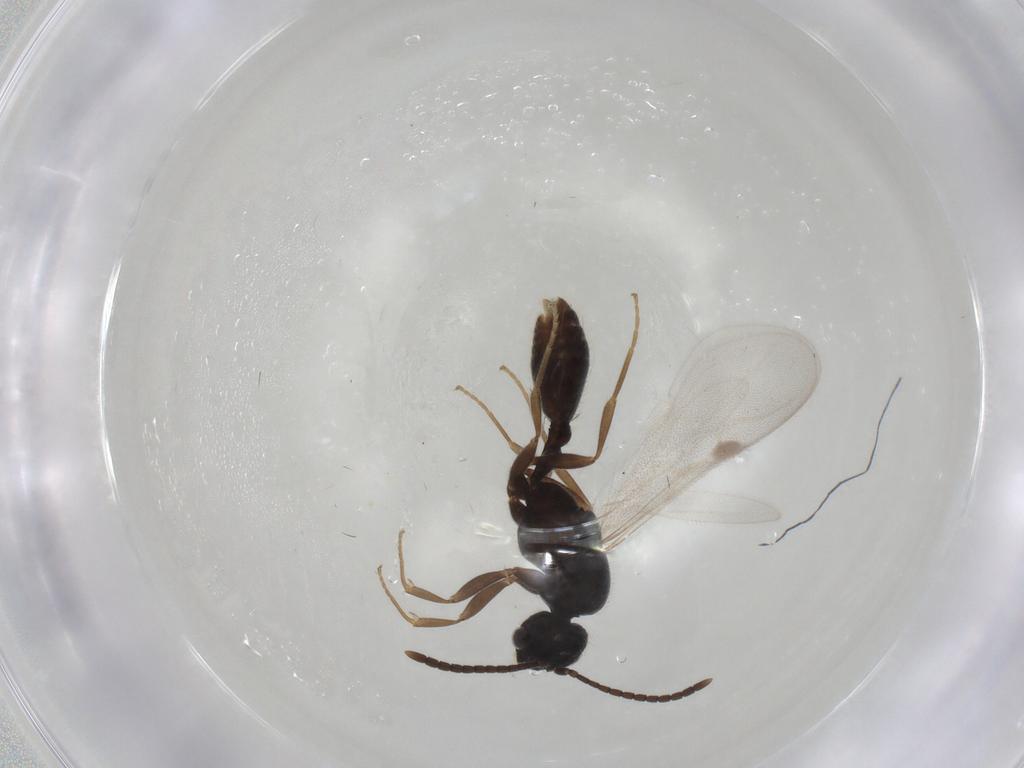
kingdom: Animalia
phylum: Arthropoda
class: Insecta
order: Hymenoptera
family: Formicidae
